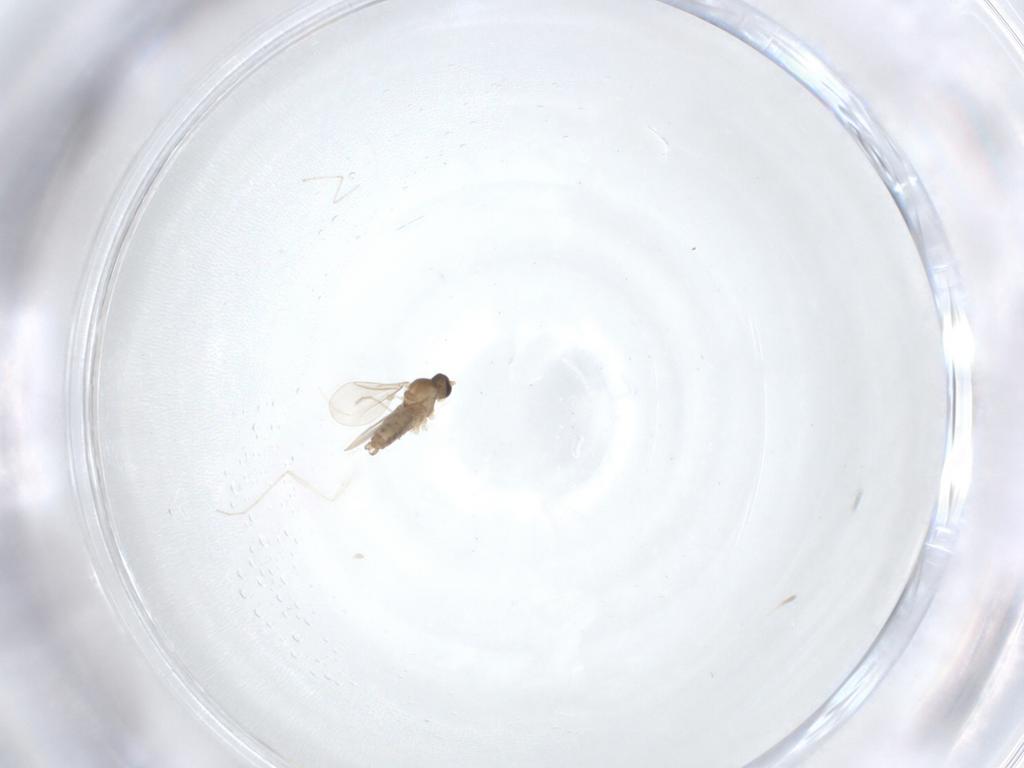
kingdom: Animalia
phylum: Arthropoda
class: Insecta
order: Diptera
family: Cecidomyiidae
